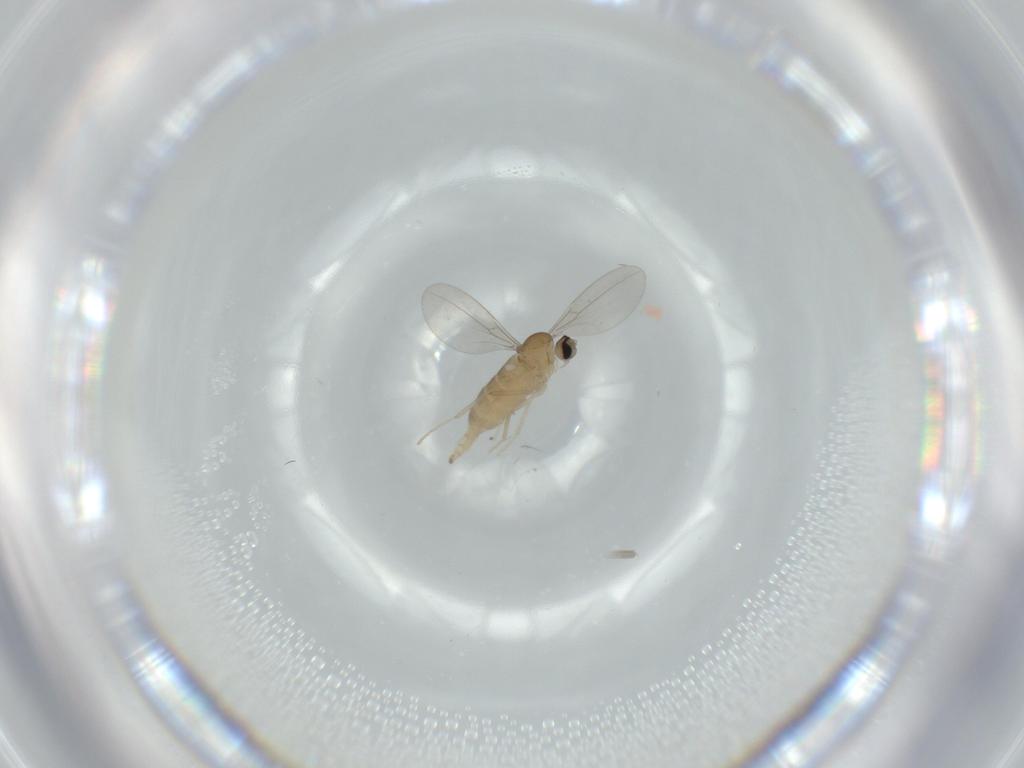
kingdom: Animalia
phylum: Arthropoda
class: Insecta
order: Diptera
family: Cecidomyiidae
